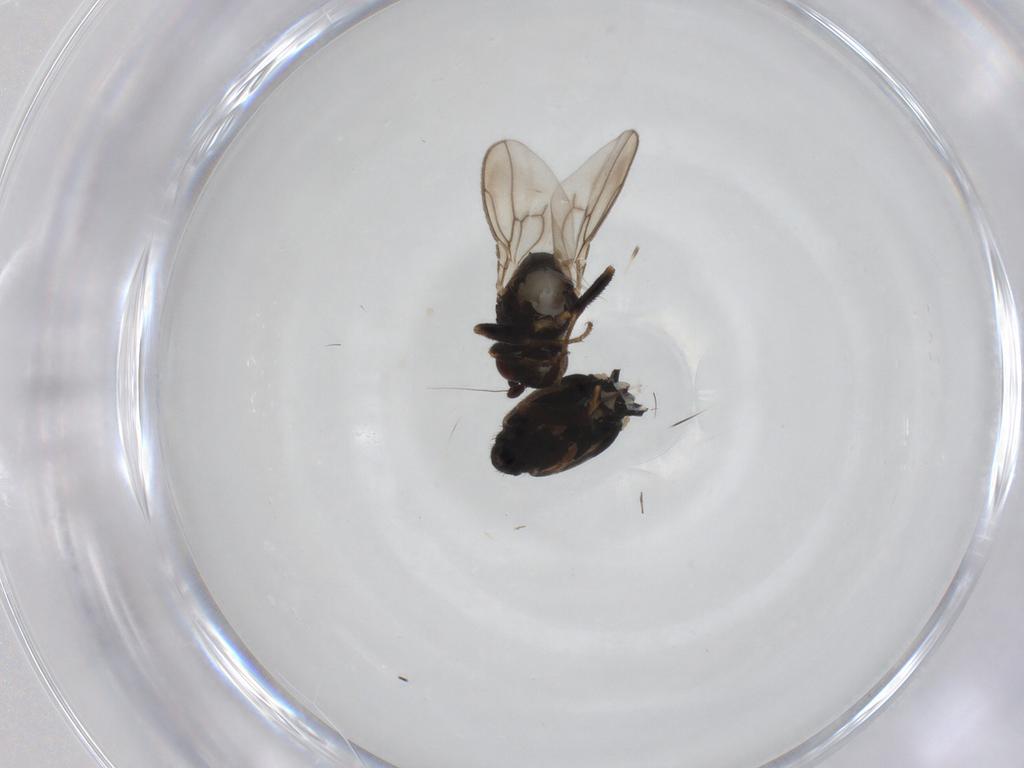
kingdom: Animalia
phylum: Arthropoda
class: Insecta
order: Diptera
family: Sphaeroceridae
